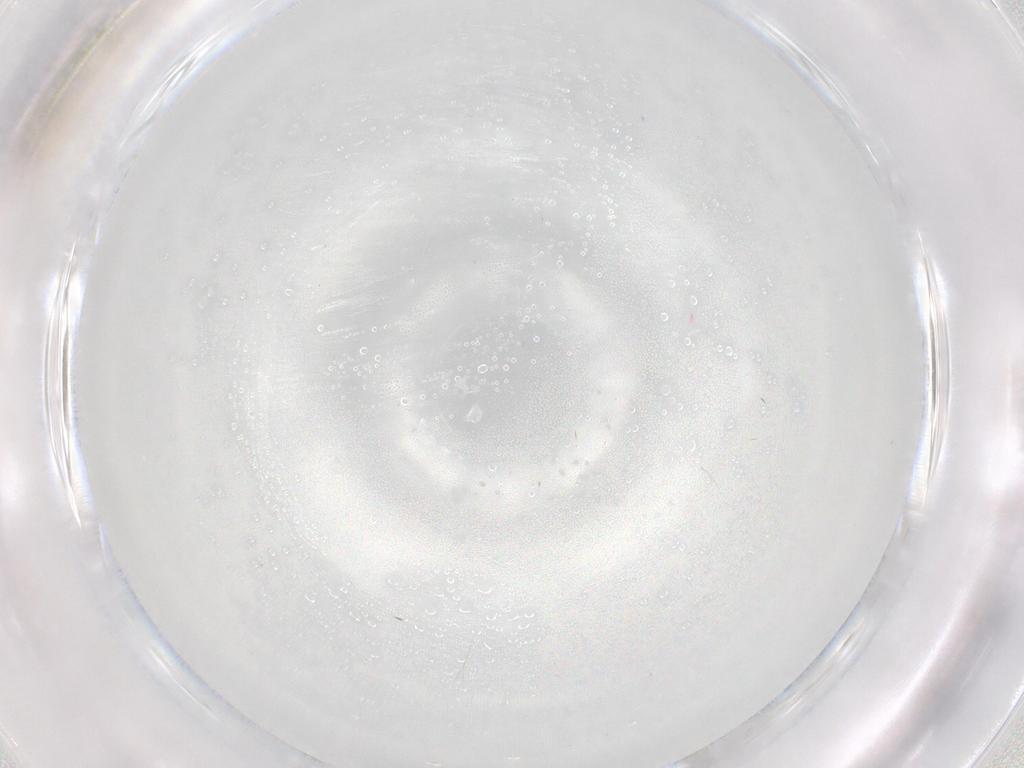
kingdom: Animalia
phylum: Arthropoda
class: Insecta
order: Diptera
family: Cecidomyiidae
